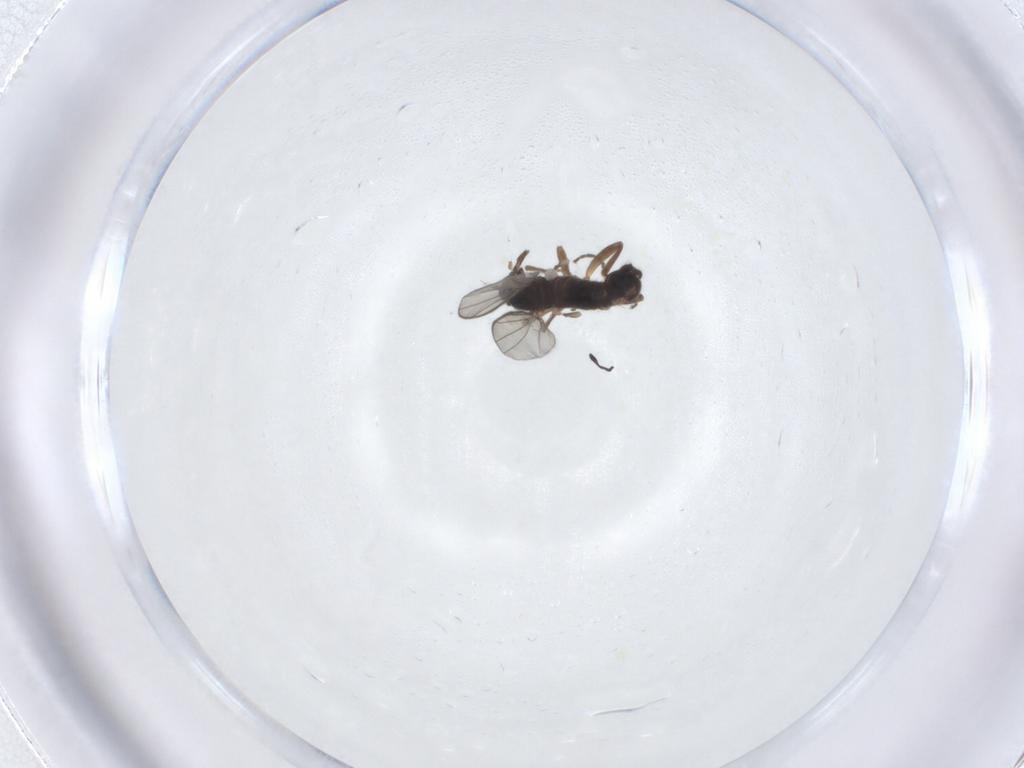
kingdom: Animalia
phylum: Arthropoda
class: Insecta
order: Diptera
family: Hybotidae
